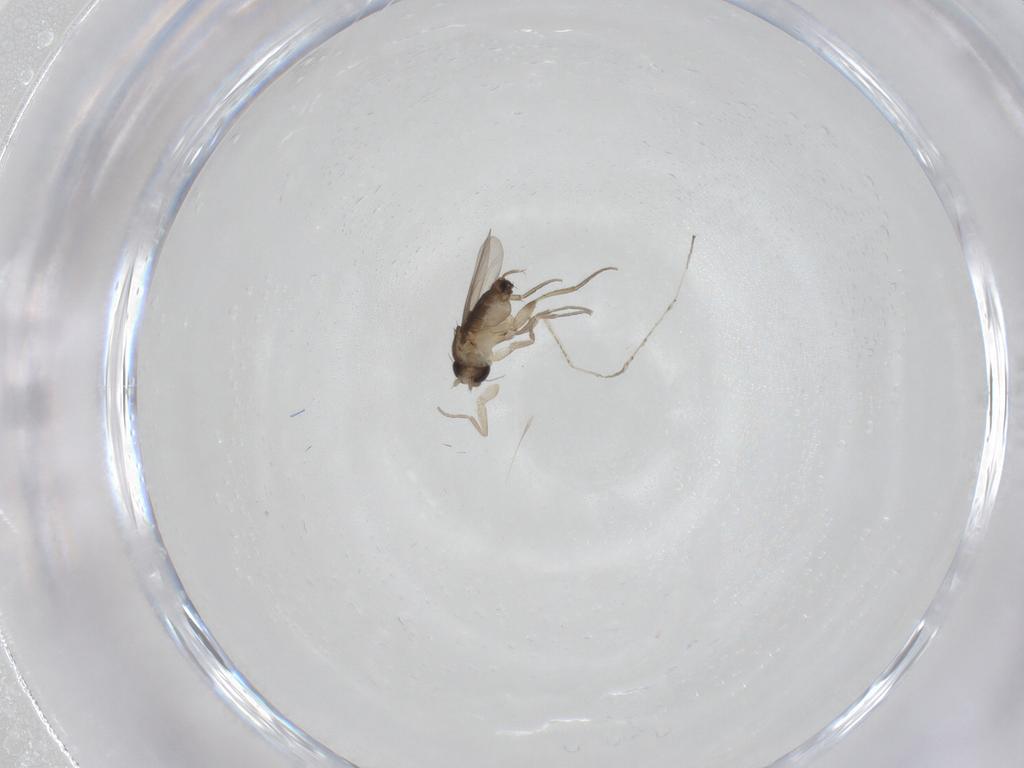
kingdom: Animalia
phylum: Arthropoda
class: Insecta
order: Diptera
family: Phoridae
